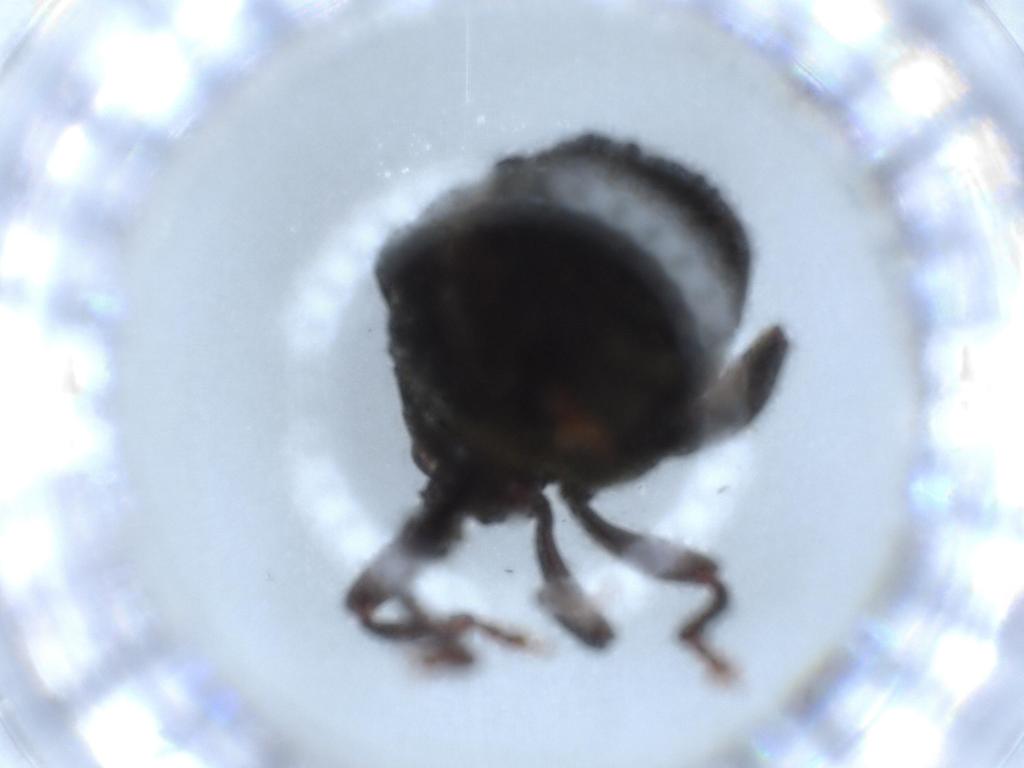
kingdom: Animalia
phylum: Arthropoda
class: Insecta
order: Coleoptera
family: Curculionidae
